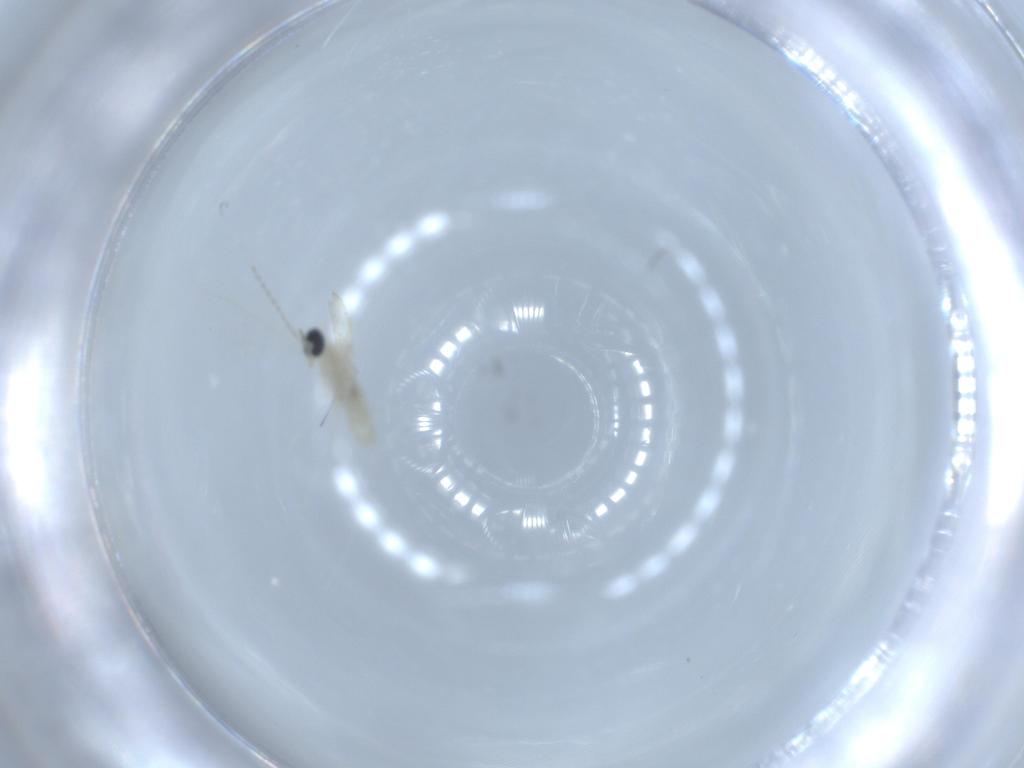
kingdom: Animalia
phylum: Arthropoda
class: Insecta
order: Diptera
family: Cecidomyiidae
